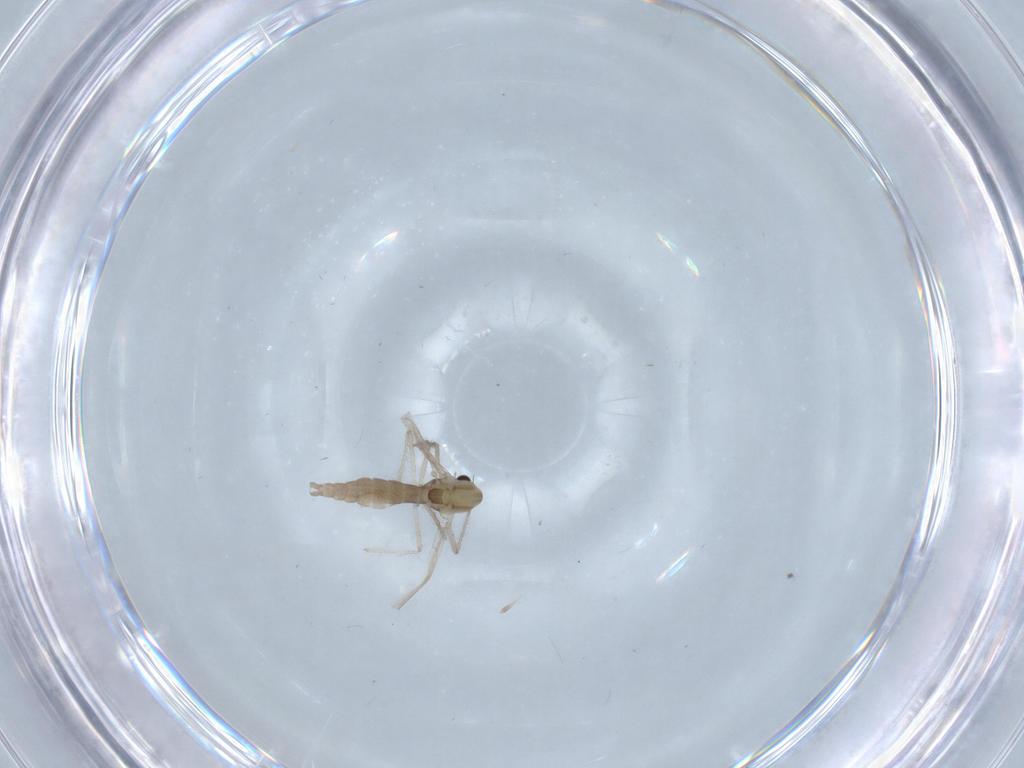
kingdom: Animalia
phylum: Arthropoda
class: Insecta
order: Diptera
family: Chironomidae
